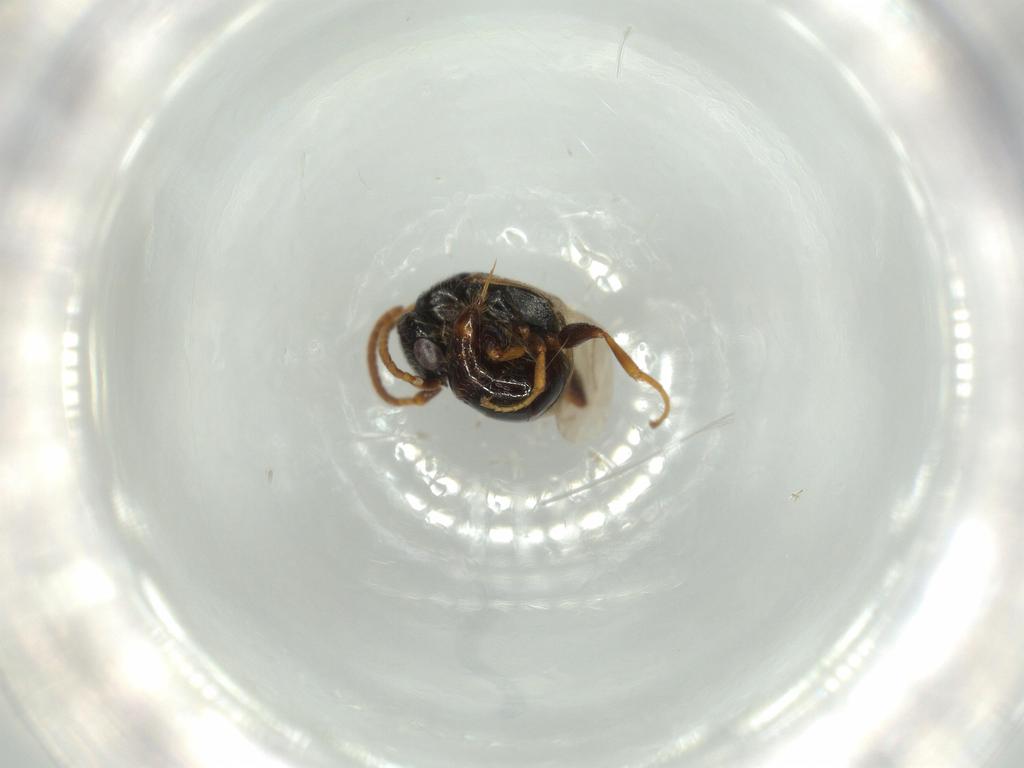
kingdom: Animalia
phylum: Arthropoda
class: Insecta
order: Hymenoptera
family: Bethylidae
